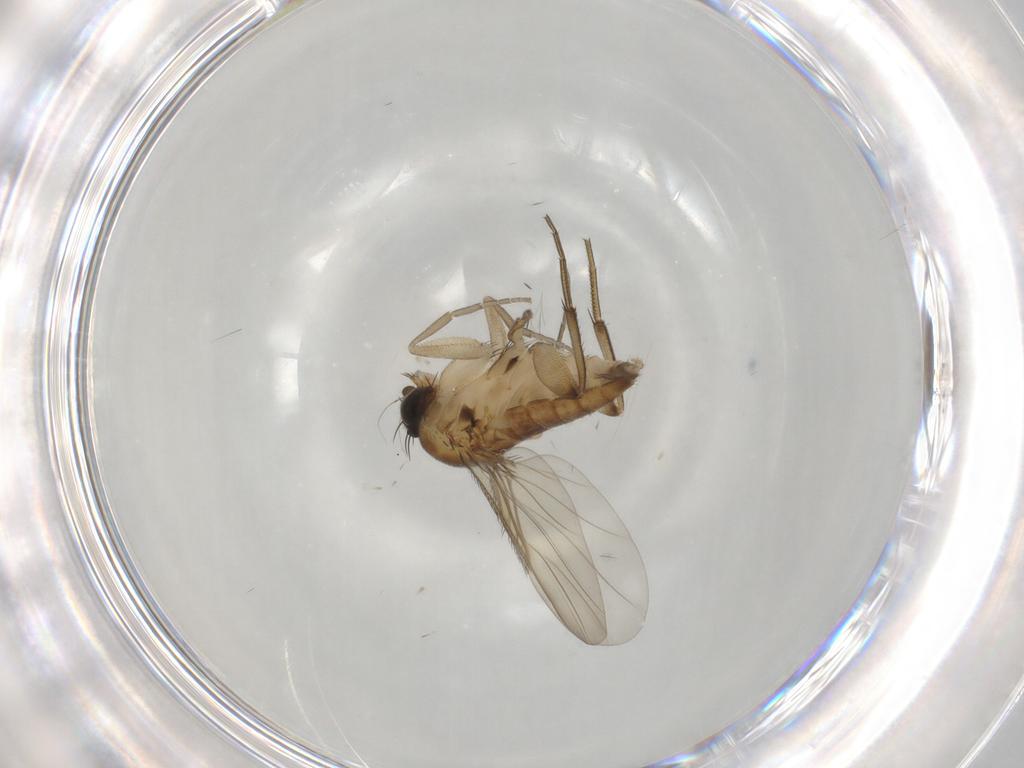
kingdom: Animalia
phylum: Arthropoda
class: Insecta
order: Diptera
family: Phoridae
